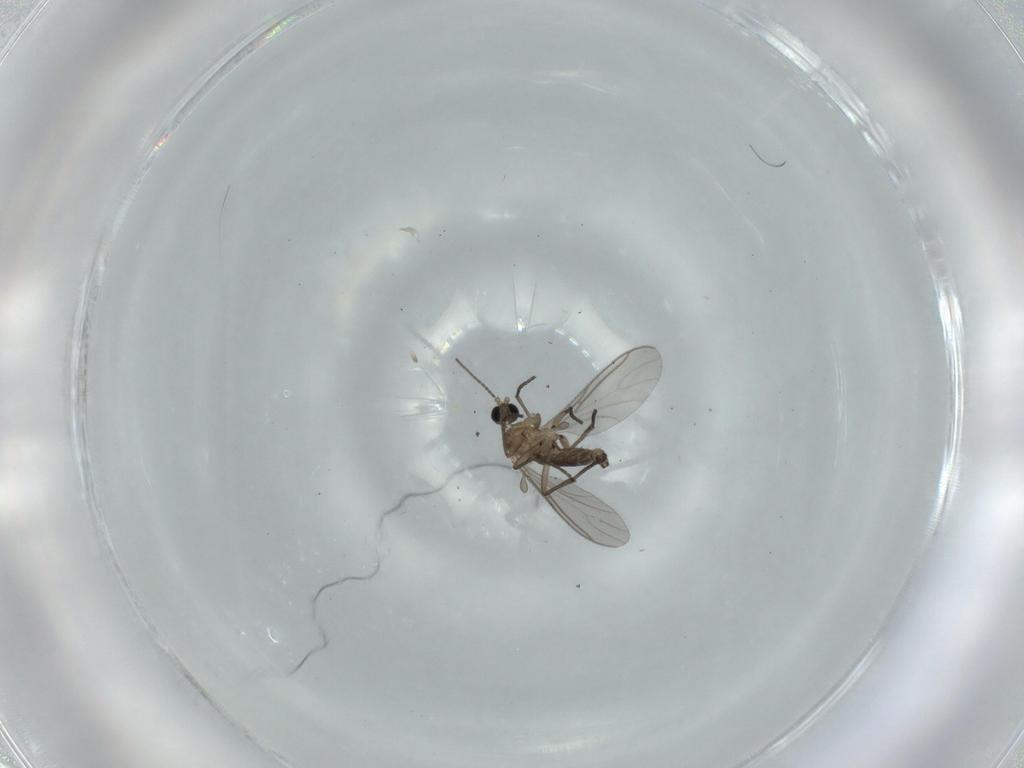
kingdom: Animalia
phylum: Arthropoda
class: Insecta
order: Diptera
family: Sciaridae
